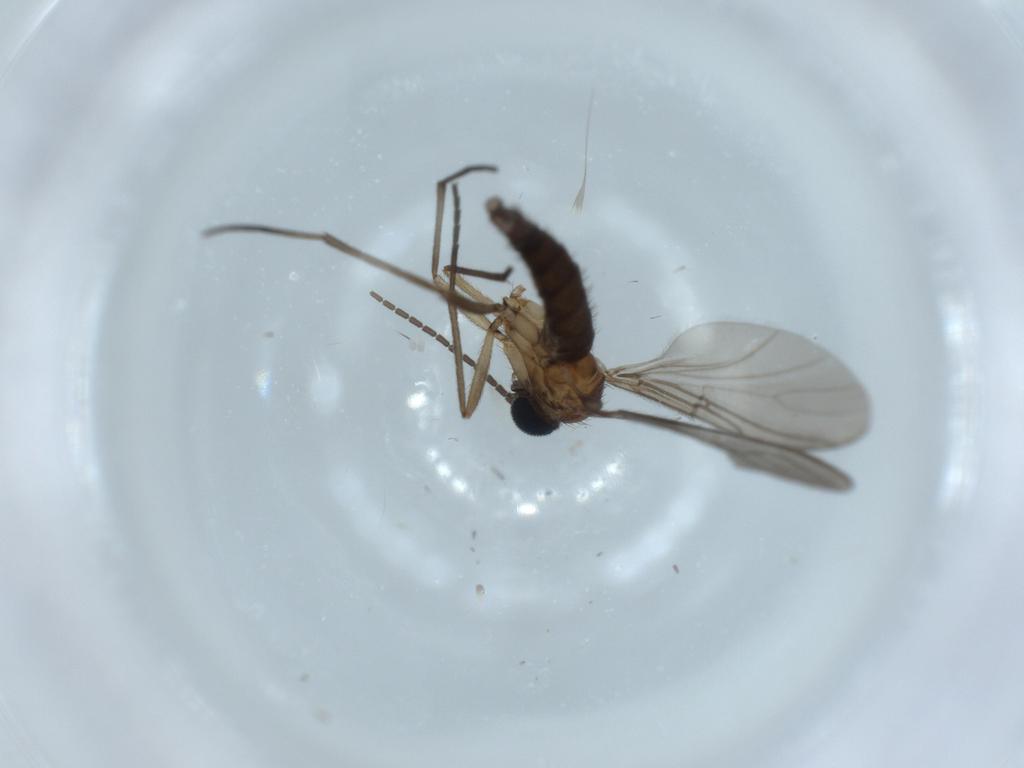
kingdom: Animalia
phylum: Arthropoda
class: Insecta
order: Diptera
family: Sciaridae
